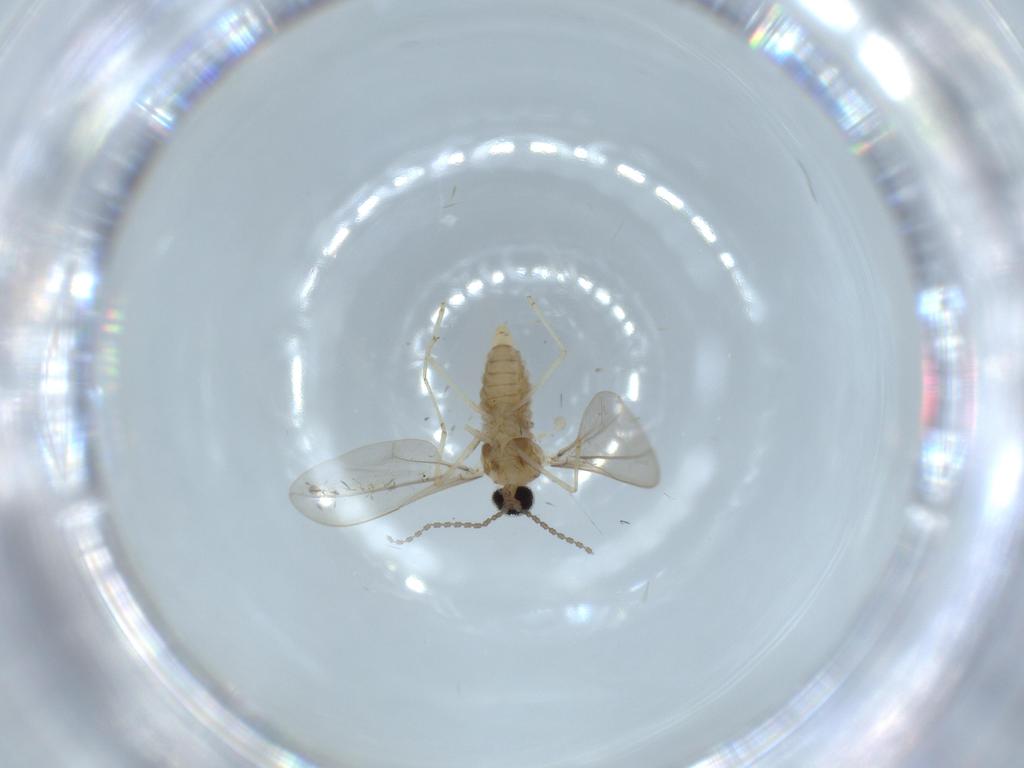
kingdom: Animalia
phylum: Arthropoda
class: Insecta
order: Diptera
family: Cecidomyiidae
